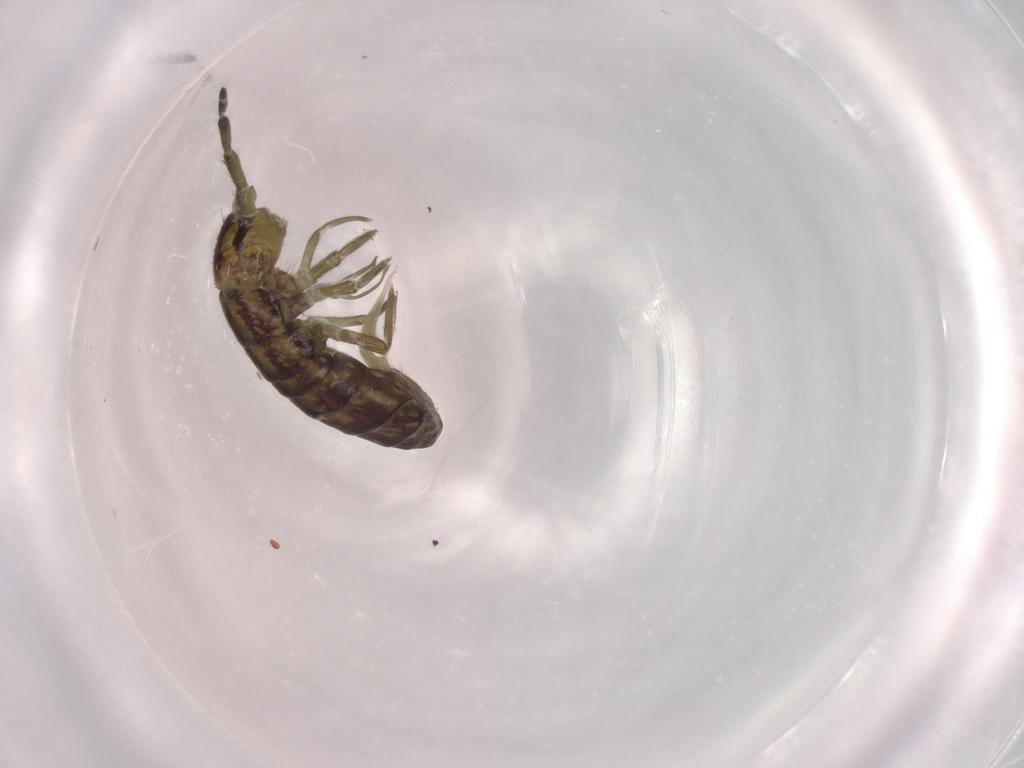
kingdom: Animalia
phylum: Arthropoda
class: Collembola
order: Entomobryomorpha
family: Isotomidae
